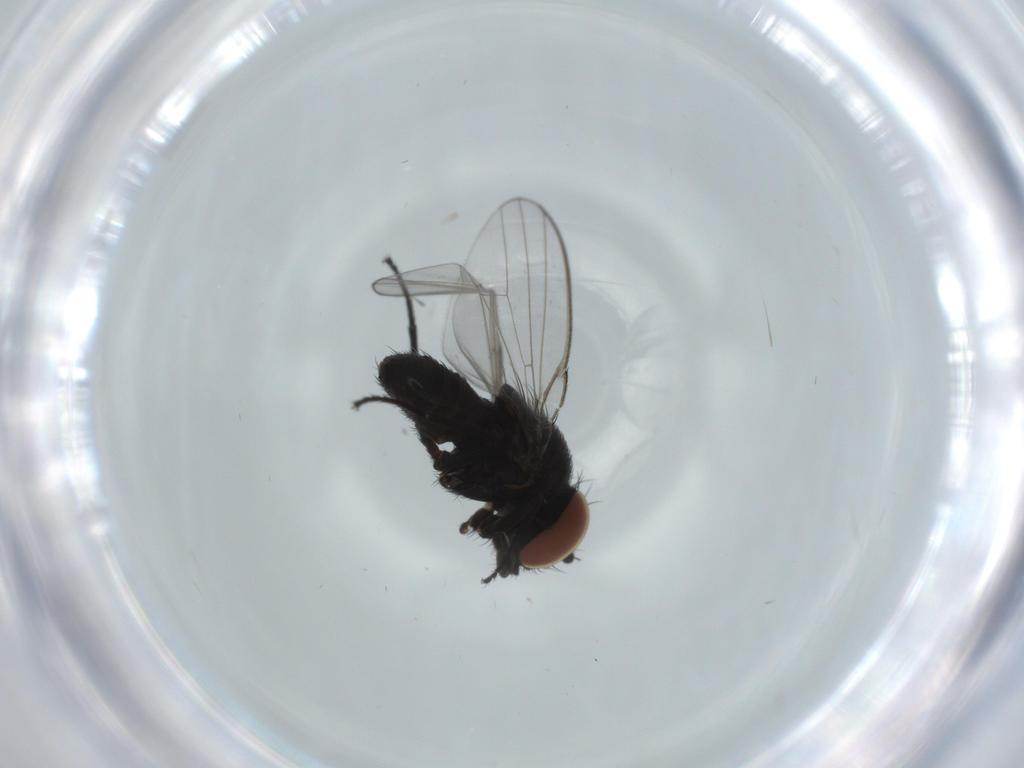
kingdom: Animalia
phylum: Arthropoda
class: Insecta
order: Diptera
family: Milichiidae
